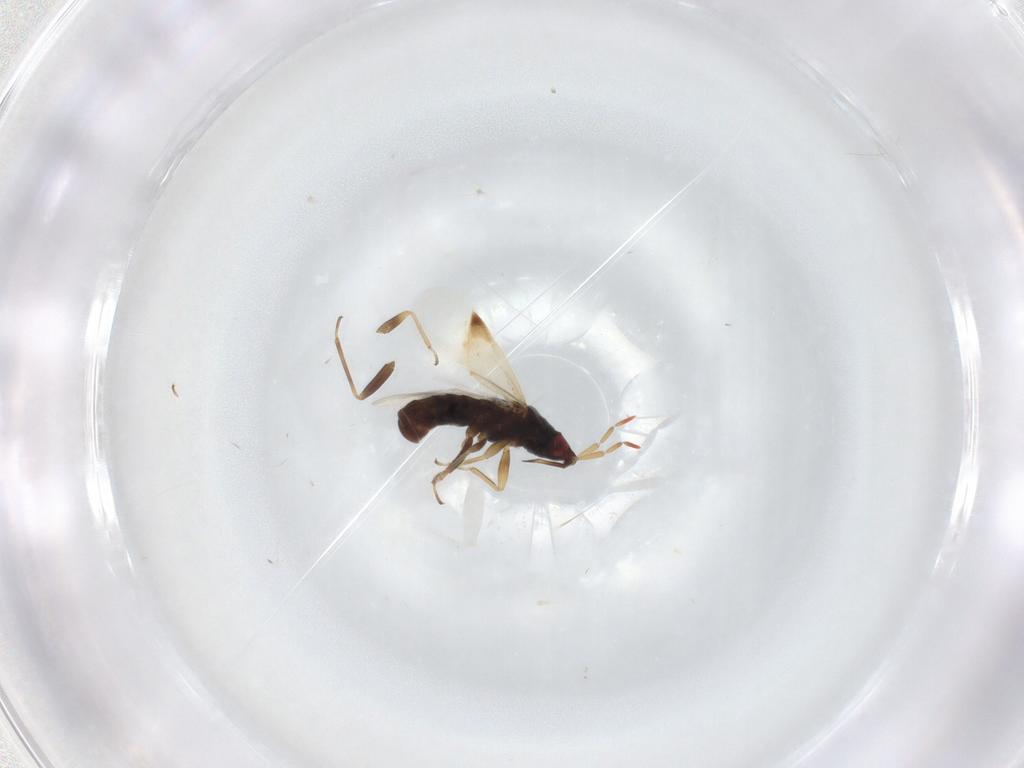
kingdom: Animalia
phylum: Arthropoda
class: Insecta
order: Hemiptera
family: Anthocoridae
